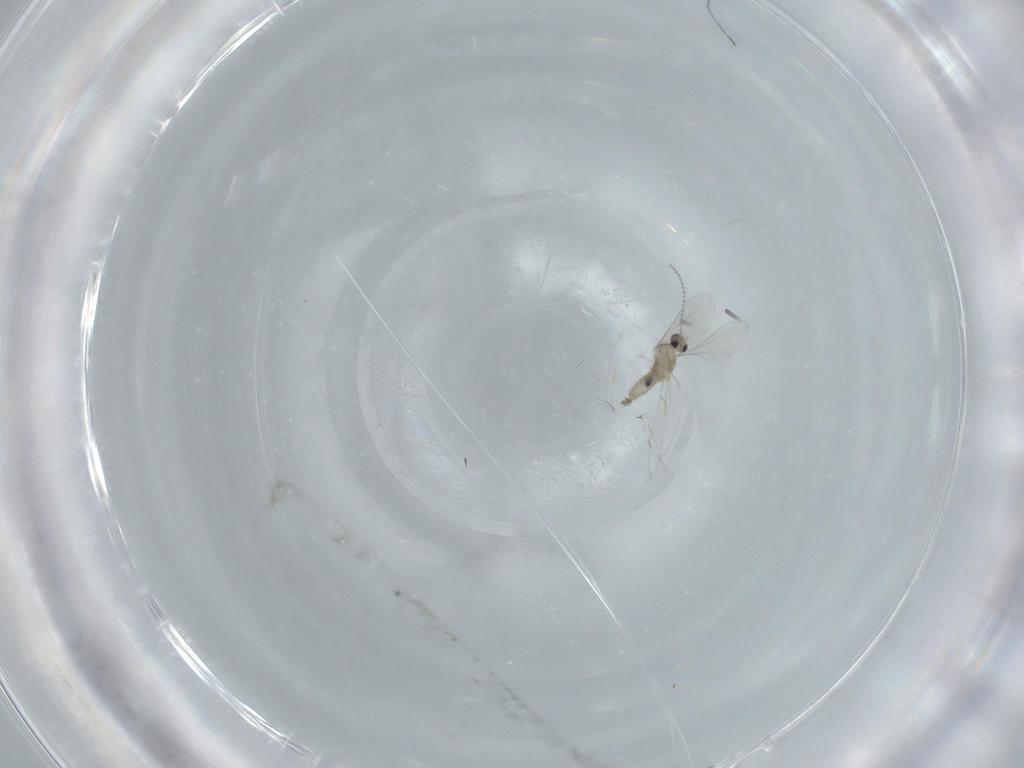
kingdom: Animalia
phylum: Arthropoda
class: Insecta
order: Diptera
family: Cecidomyiidae
